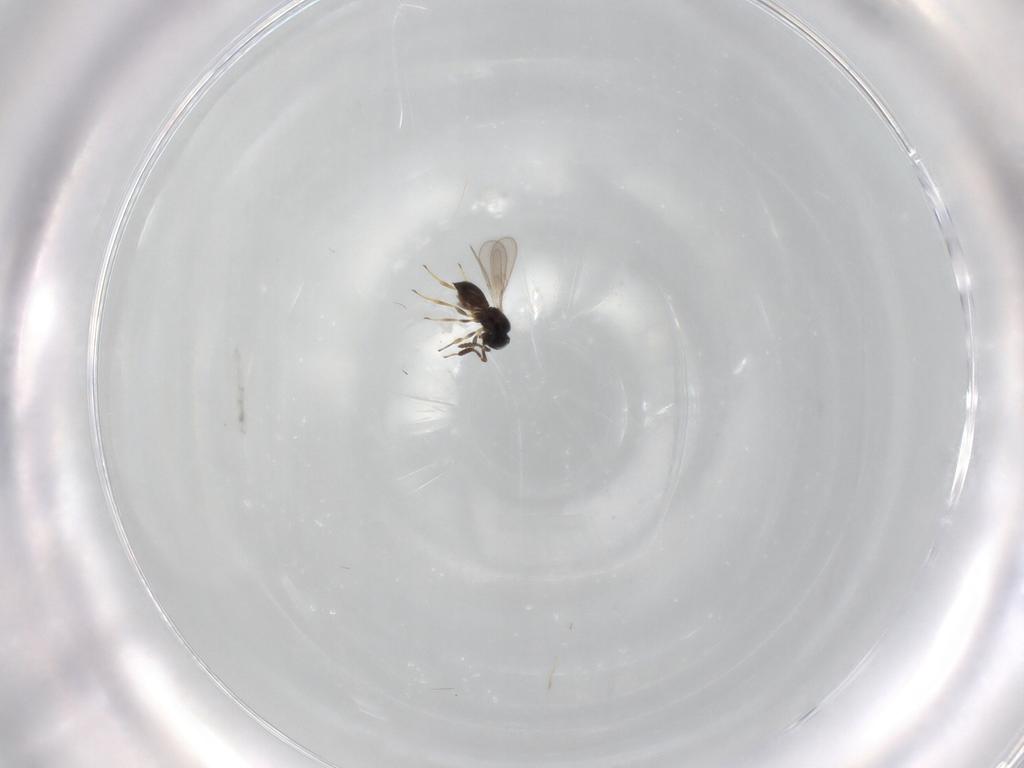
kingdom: Animalia
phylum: Arthropoda
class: Insecta
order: Hymenoptera
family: Scelionidae
